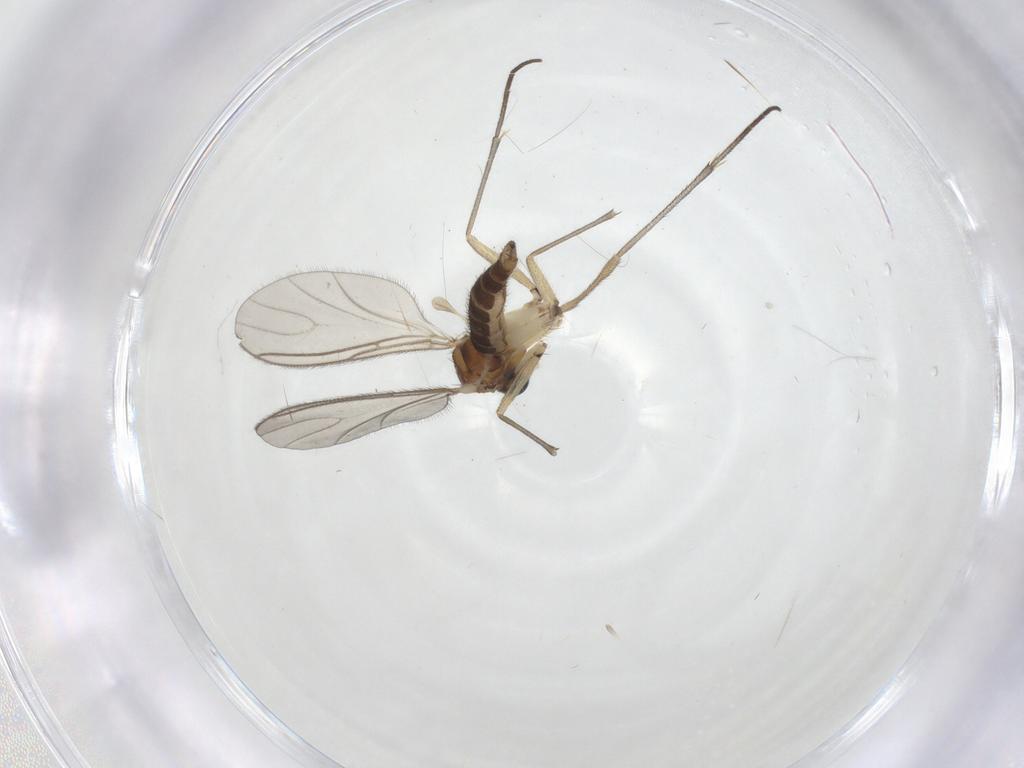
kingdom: Animalia
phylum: Arthropoda
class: Insecta
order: Diptera
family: Sciaridae
